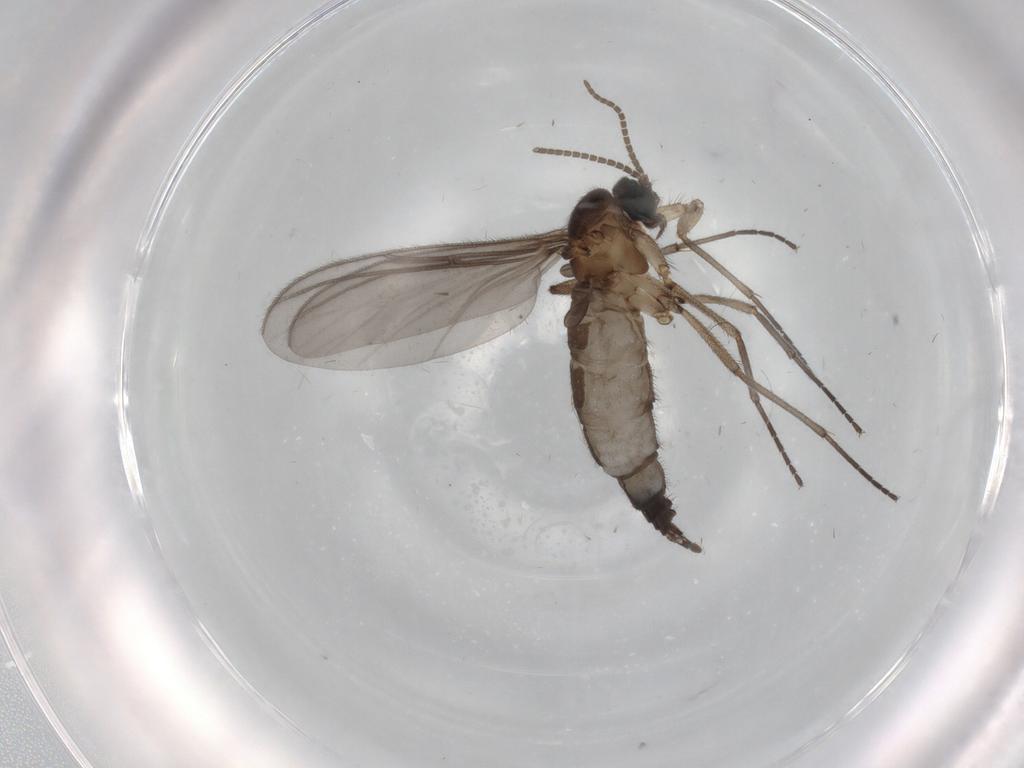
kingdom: Animalia
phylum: Arthropoda
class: Insecta
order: Diptera
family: Sciaridae
